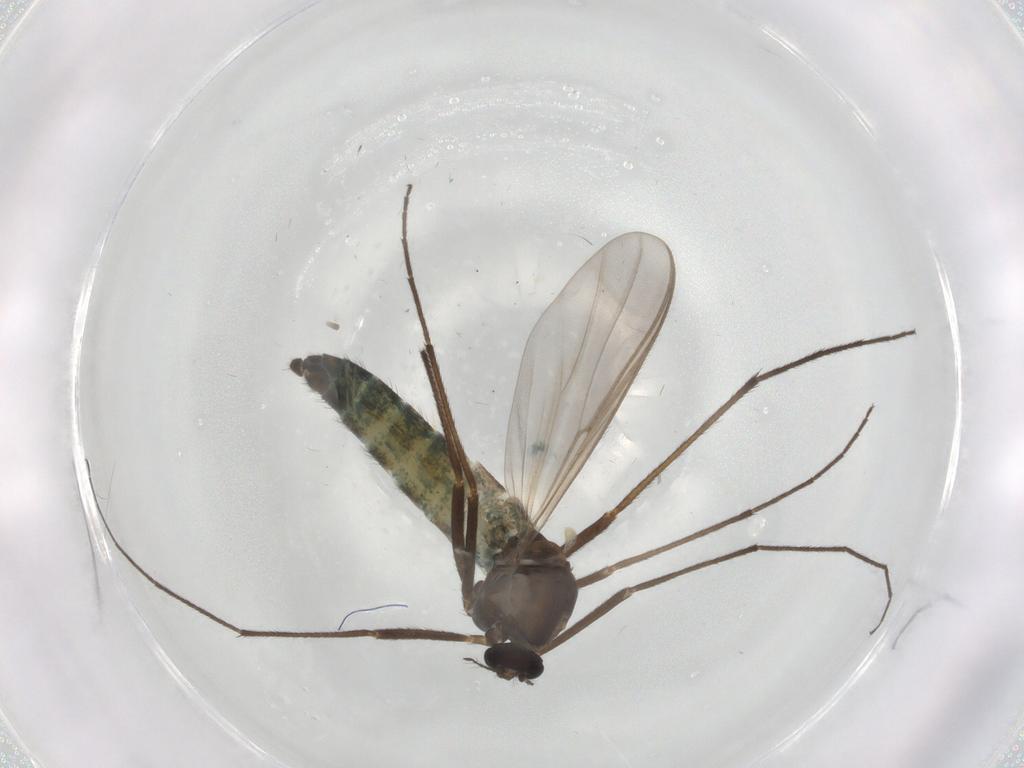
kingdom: Animalia
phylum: Arthropoda
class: Insecta
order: Diptera
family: Chironomidae
